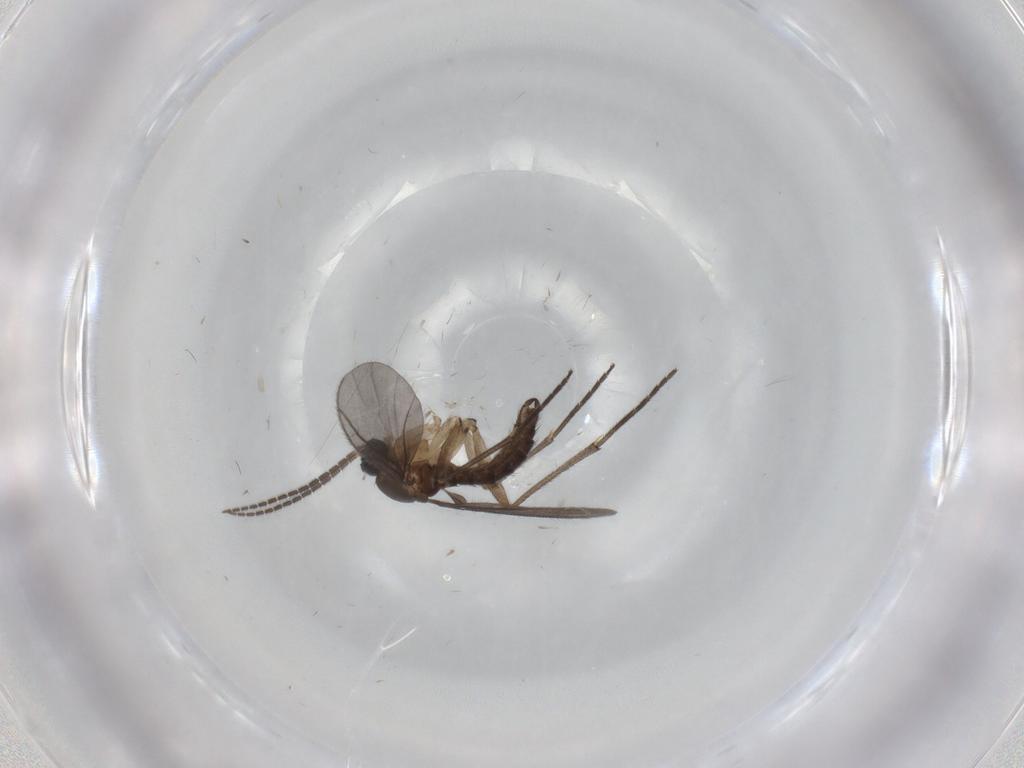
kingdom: Animalia
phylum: Arthropoda
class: Insecta
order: Diptera
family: Sciaridae
